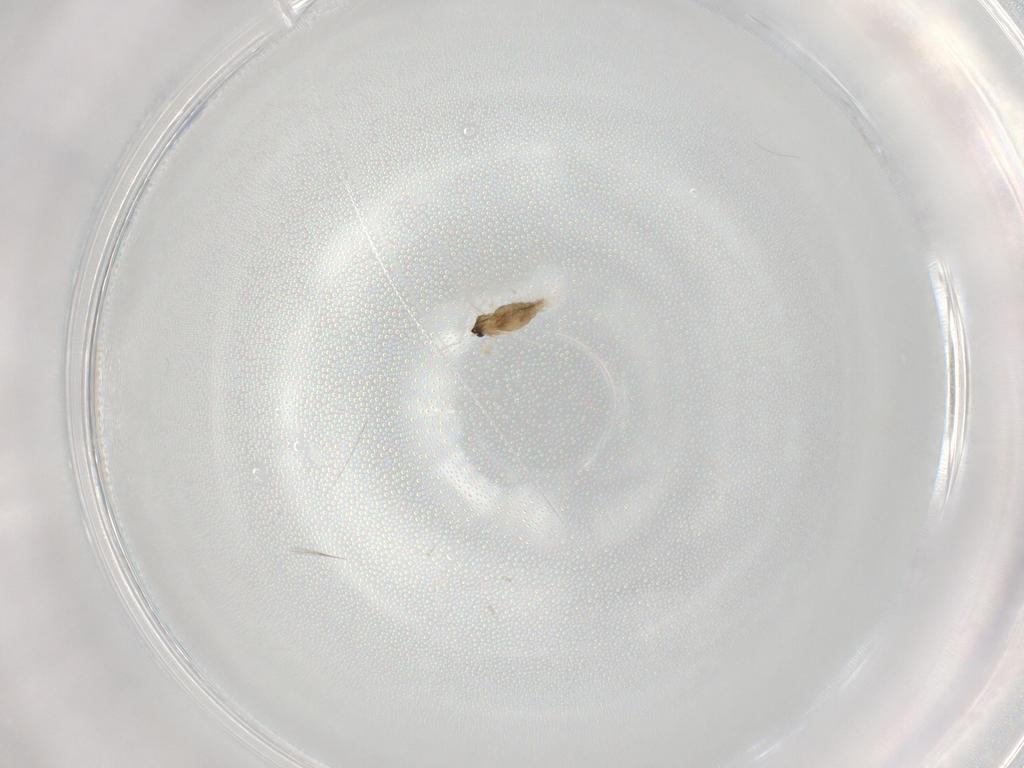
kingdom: Animalia
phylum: Arthropoda
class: Insecta
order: Diptera
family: Cecidomyiidae
